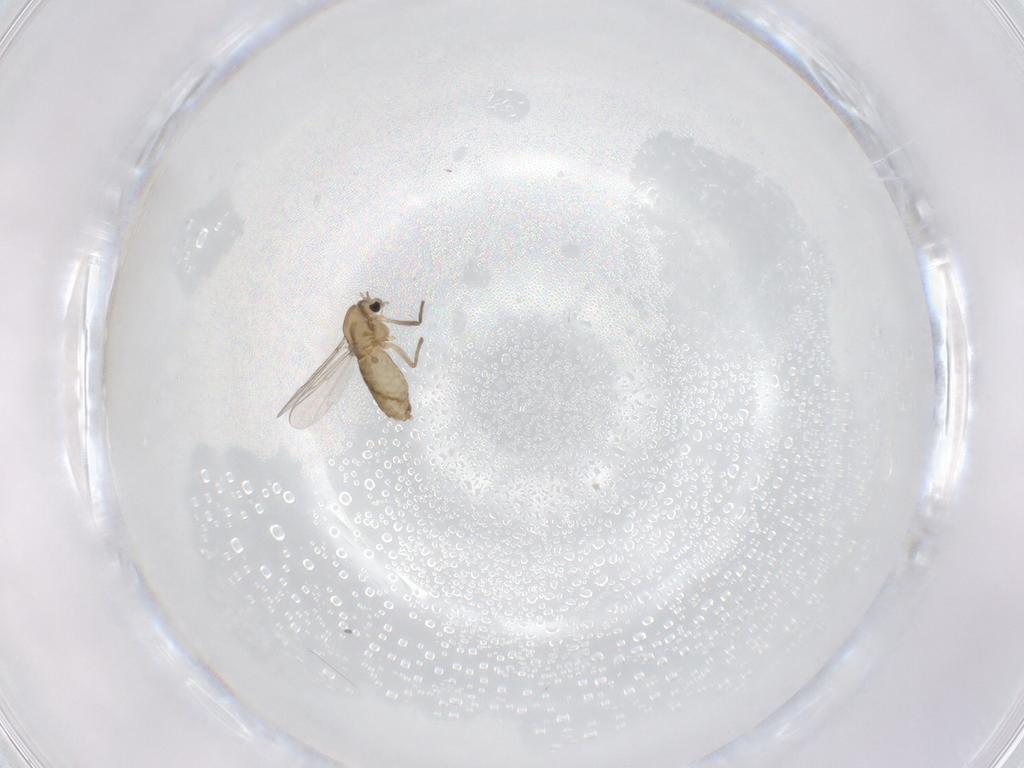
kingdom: Animalia
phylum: Arthropoda
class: Insecta
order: Diptera
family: Chironomidae
